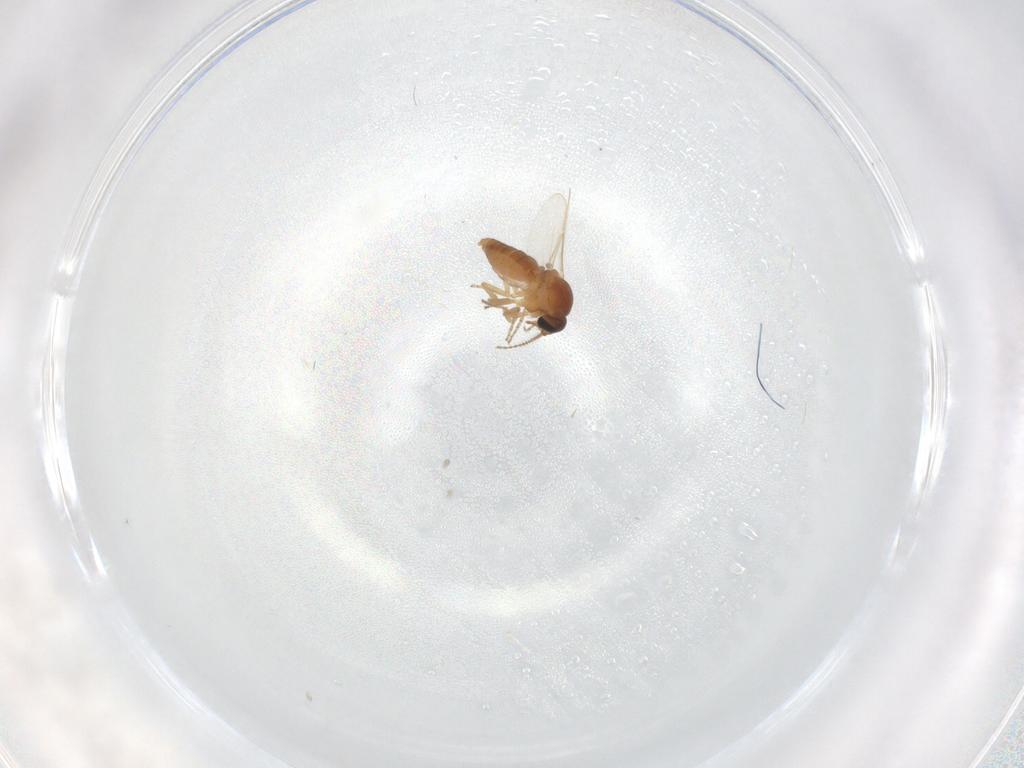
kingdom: Animalia
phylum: Arthropoda
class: Insecta
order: Diptera
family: Ceratopogonidae
